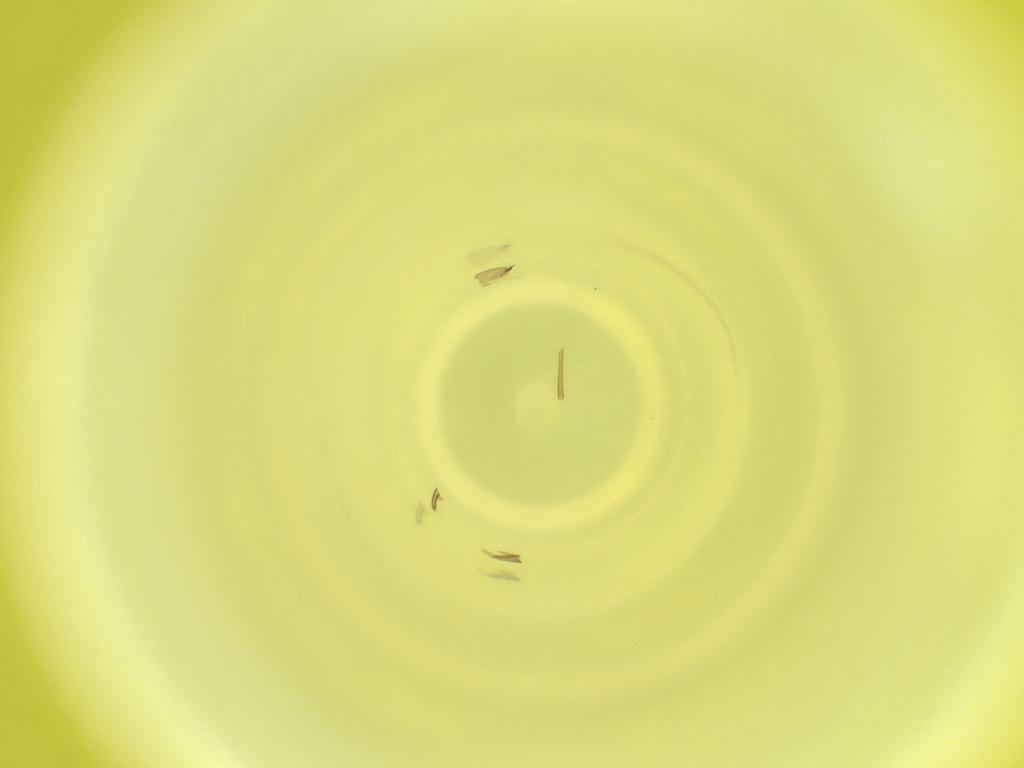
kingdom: Animalia
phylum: Arthropoda
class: Insecta
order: Diptera
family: Cecidomyiidae
